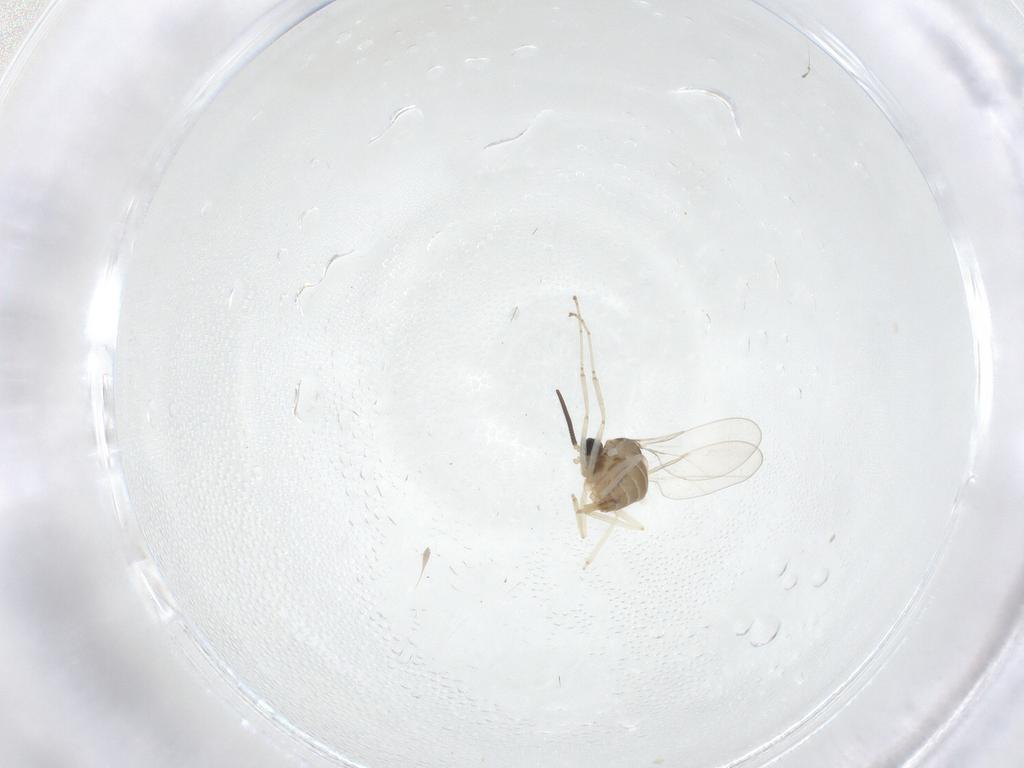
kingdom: Animalia
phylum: Arthropoda
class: Insecta
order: Diptera
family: Cecidomyiidae
